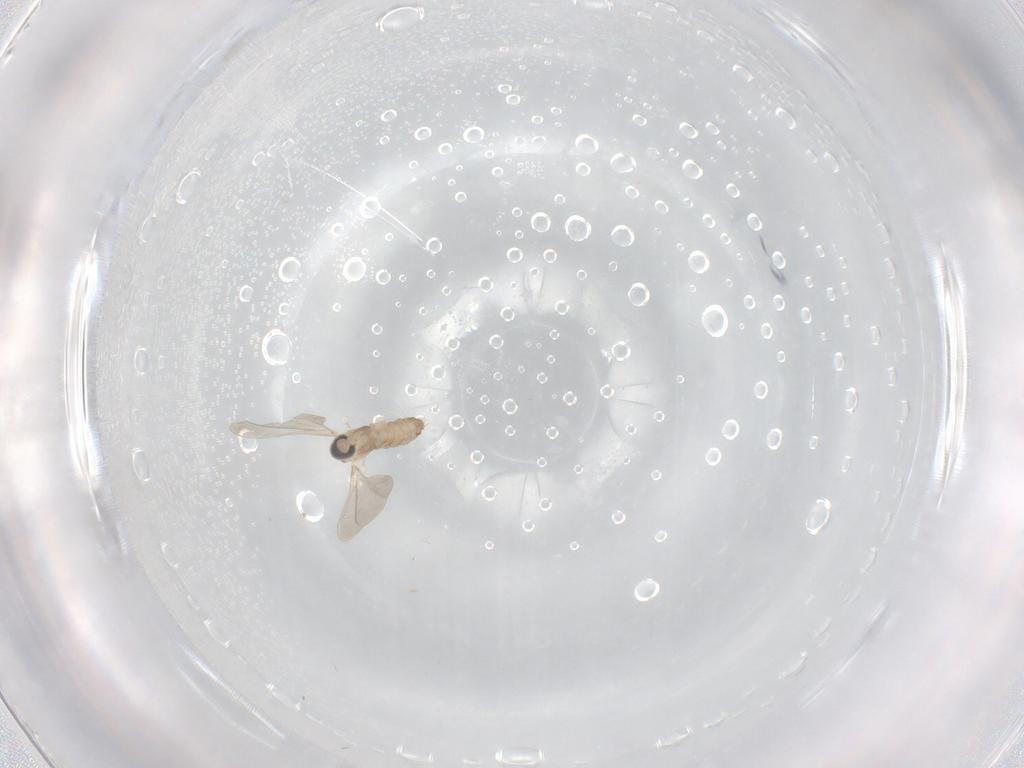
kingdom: Animalia
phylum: Arthropoda
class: Insecta
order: Diptera
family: Cecidomyiidae
